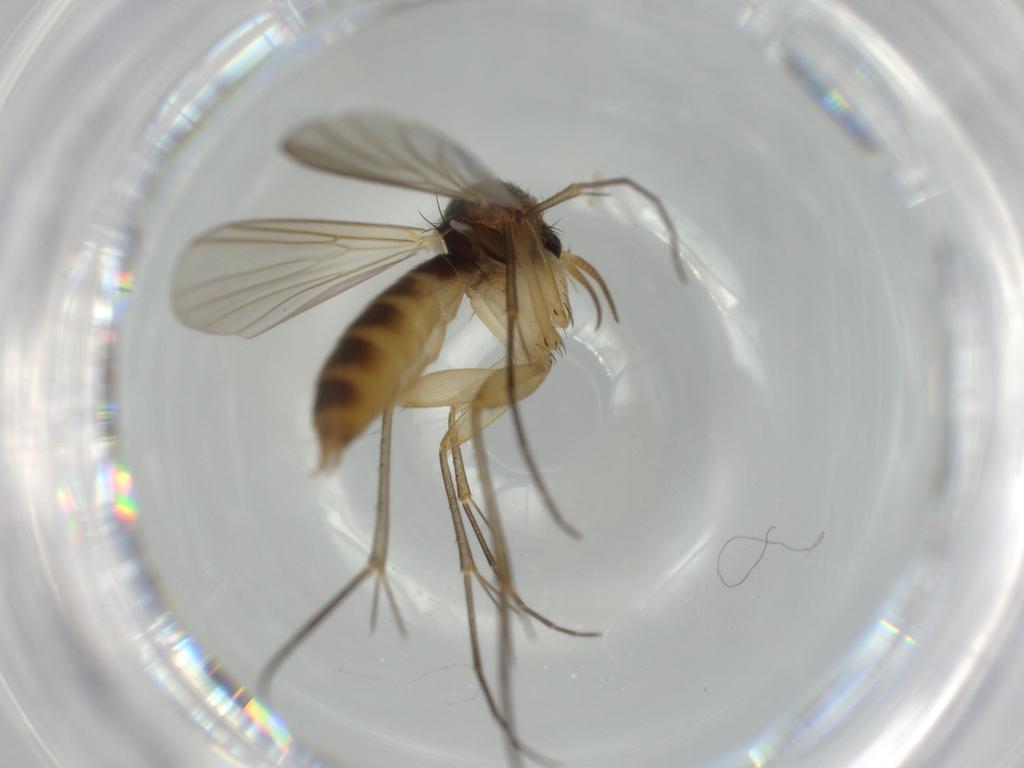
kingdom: Animalia
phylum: Arthropoda
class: Insecta
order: Diptera
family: Mycetophilidae
